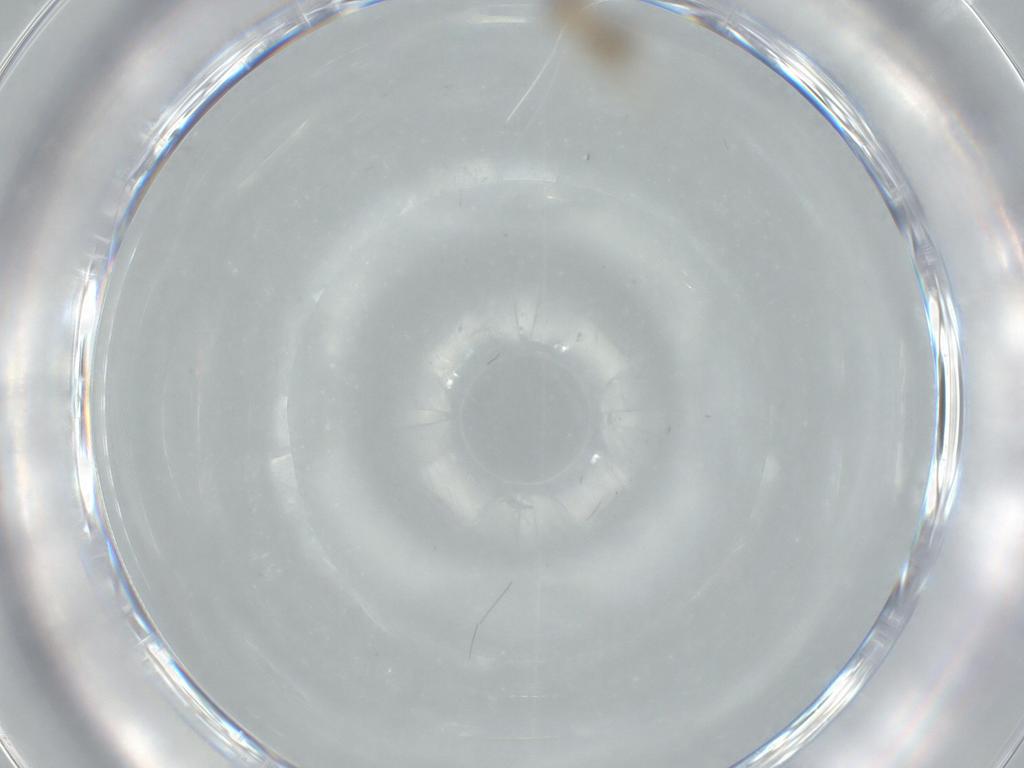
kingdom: Animalia
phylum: Arthropoda
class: Insecta
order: Diptera
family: Cecidomyiidae
